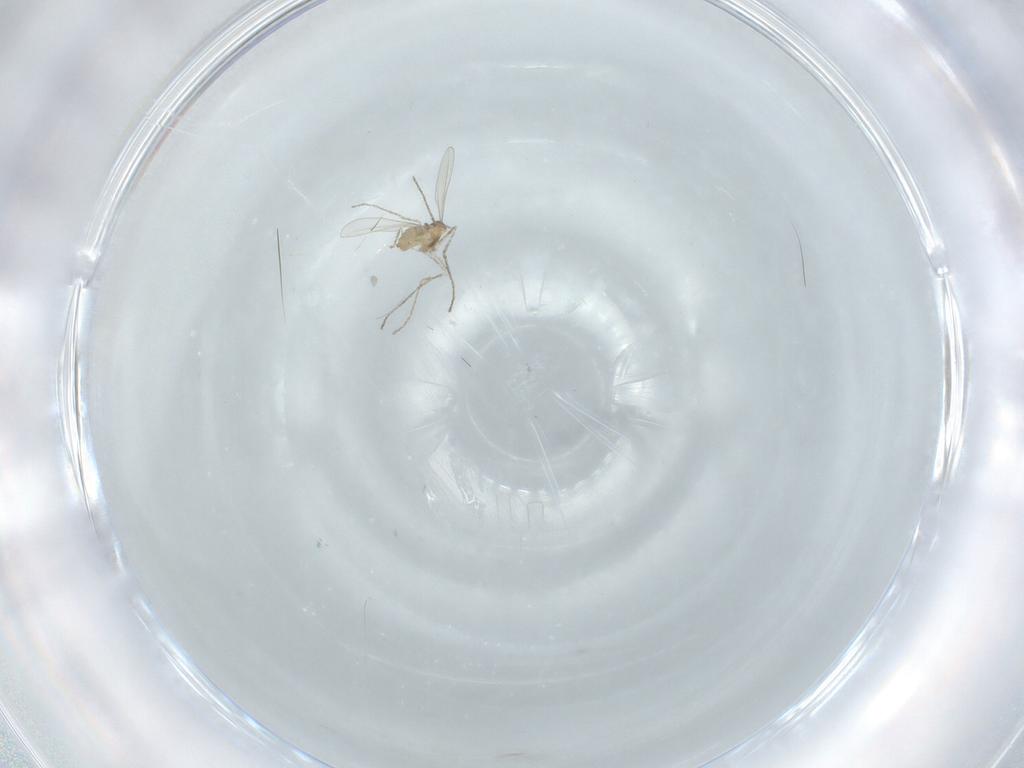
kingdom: Animalia
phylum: Arthropoda
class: Insecta
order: Diptera
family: Cecidomyiidae
